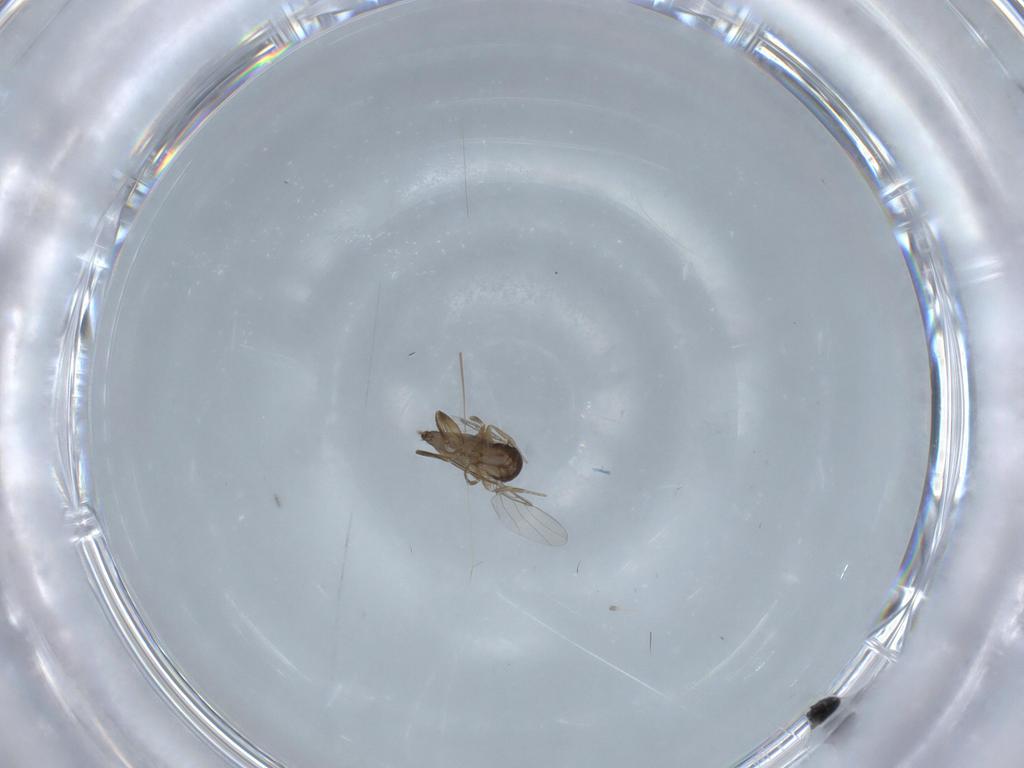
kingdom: Animalia
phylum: Arthropoda
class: Insecta
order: Diptera
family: Phoridae
